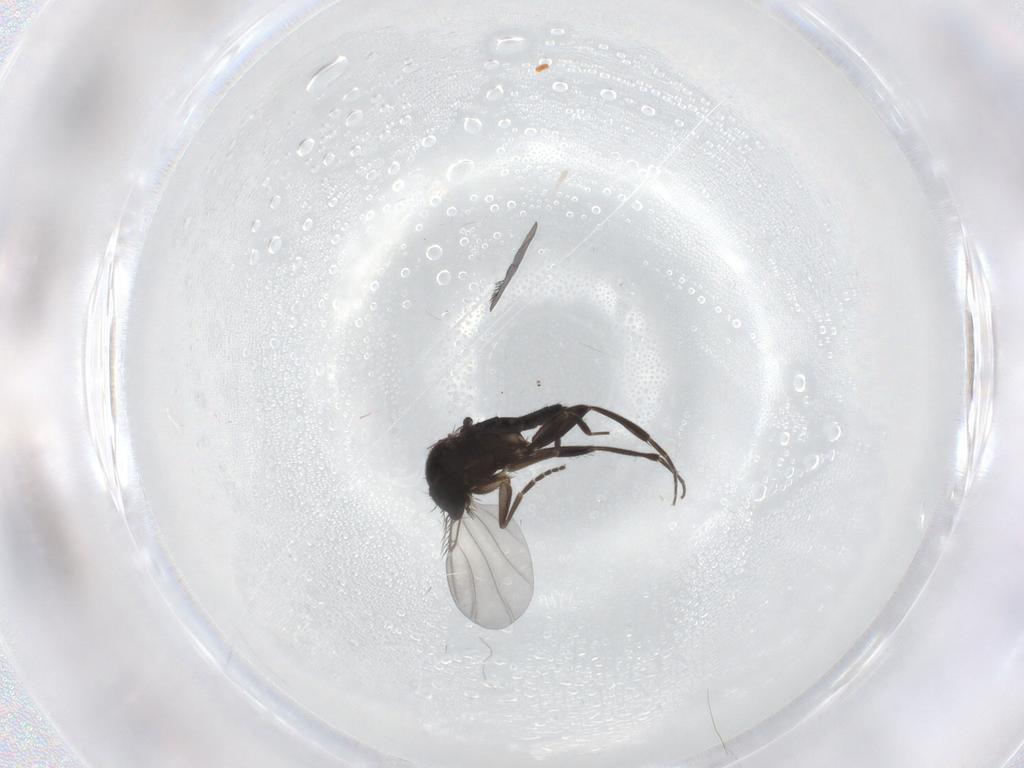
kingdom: Animalia
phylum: Arthropoda
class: Insecta
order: Diptera
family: Phoridae
